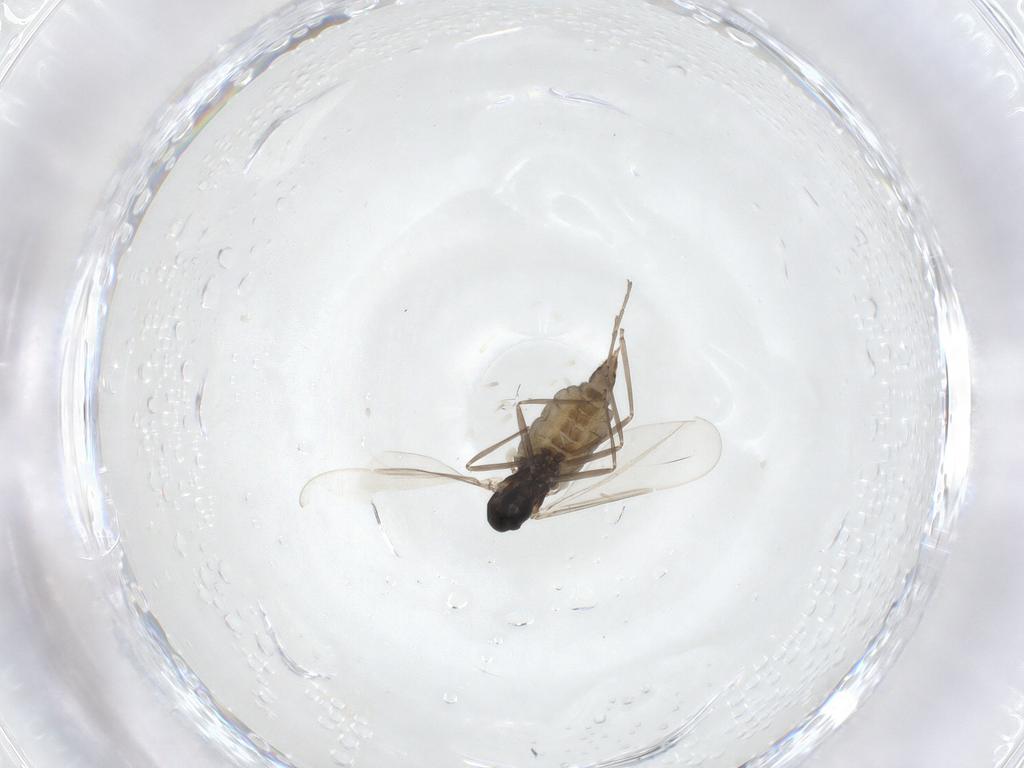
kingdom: Animalia
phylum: Arthropoda
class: Insecta
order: Diptera
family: Cecidomyiidae
